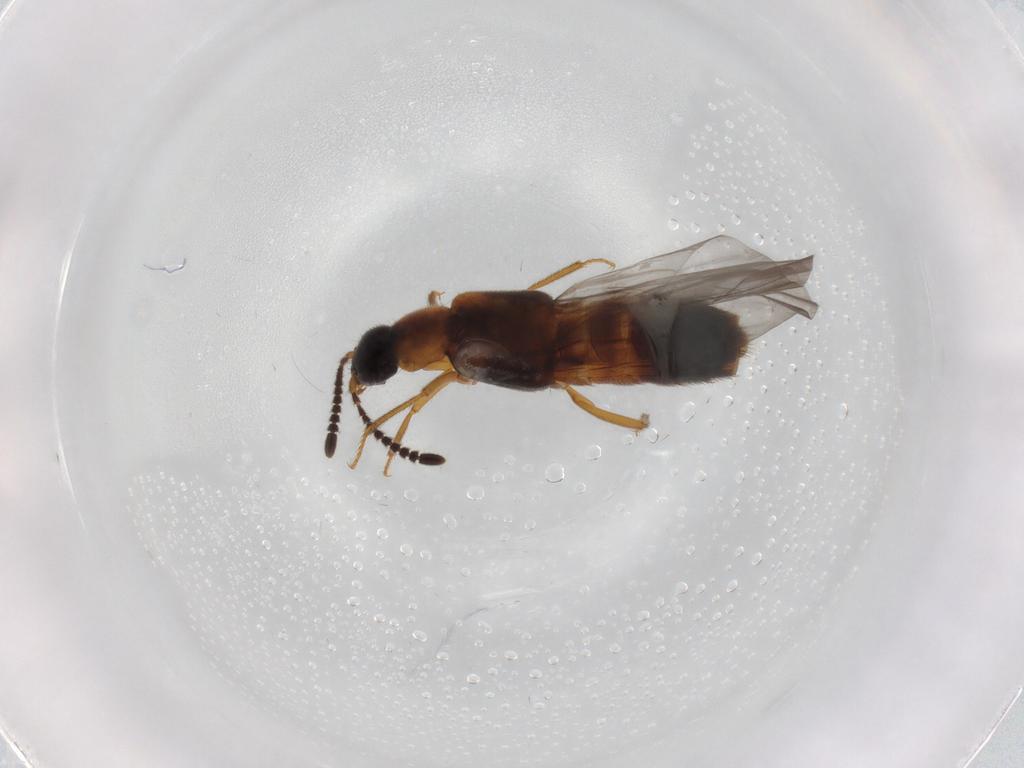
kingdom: Animalia
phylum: Arthropoda
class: Insecta
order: Coleoptera
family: Staphylinidae
